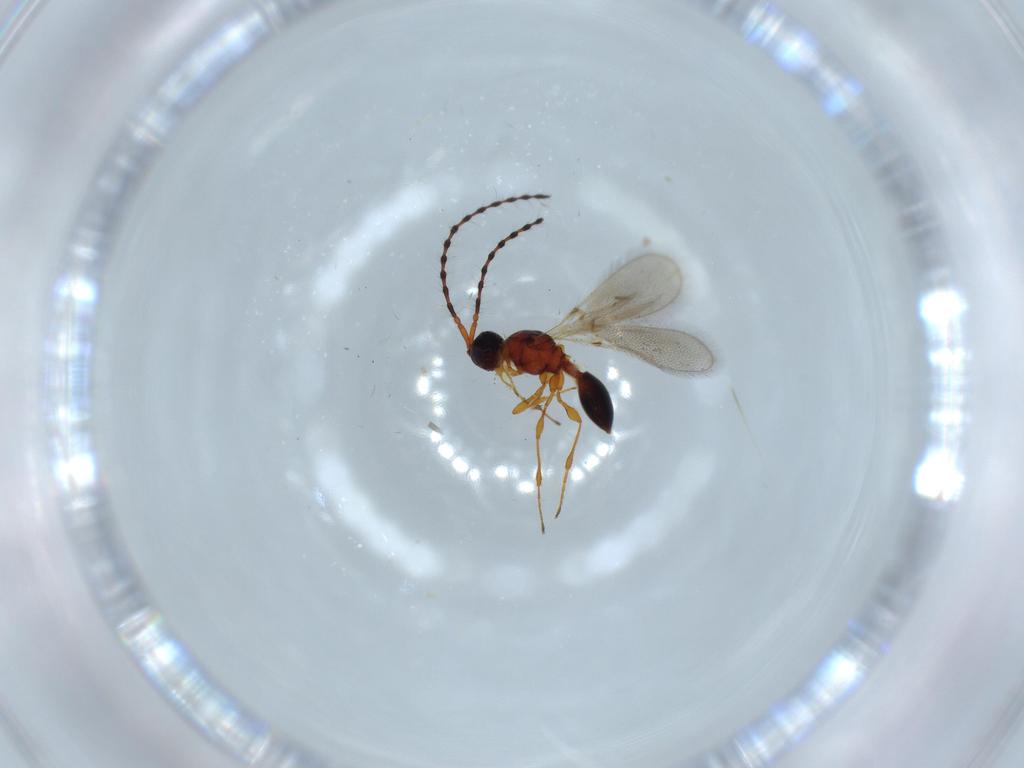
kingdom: Animalia
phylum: Arthropoda
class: Insecta
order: Hymenoptera
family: Diapriidae
